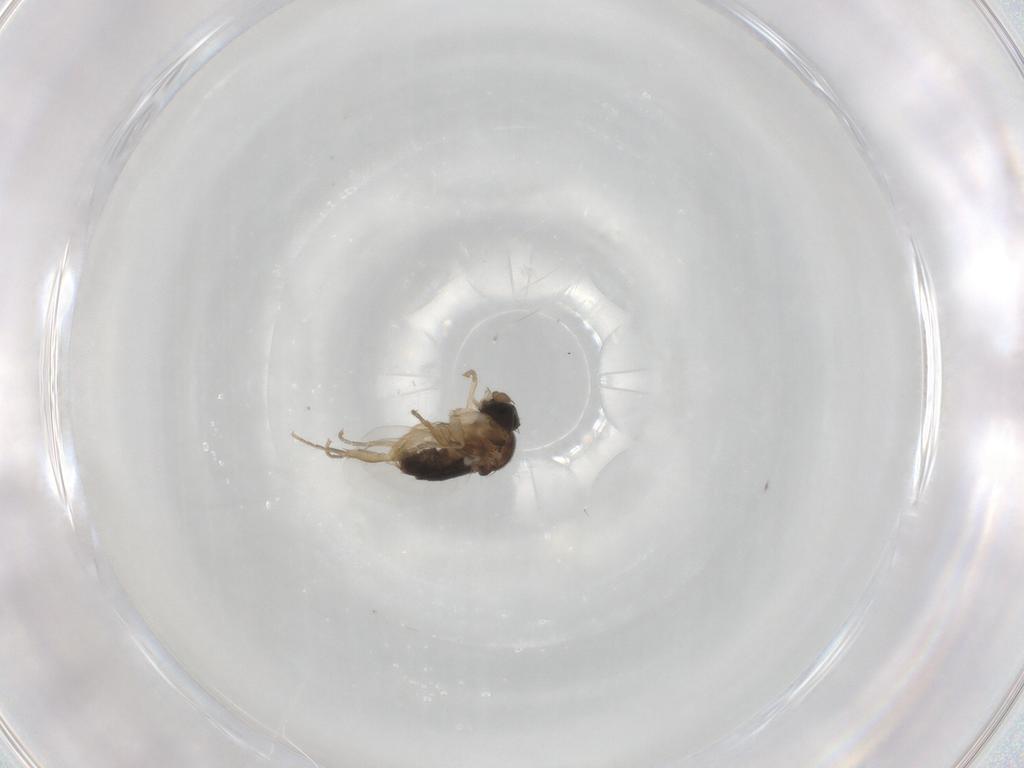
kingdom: Animalia
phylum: Arthropoda
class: Insecta
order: Diptera
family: Phoridae
